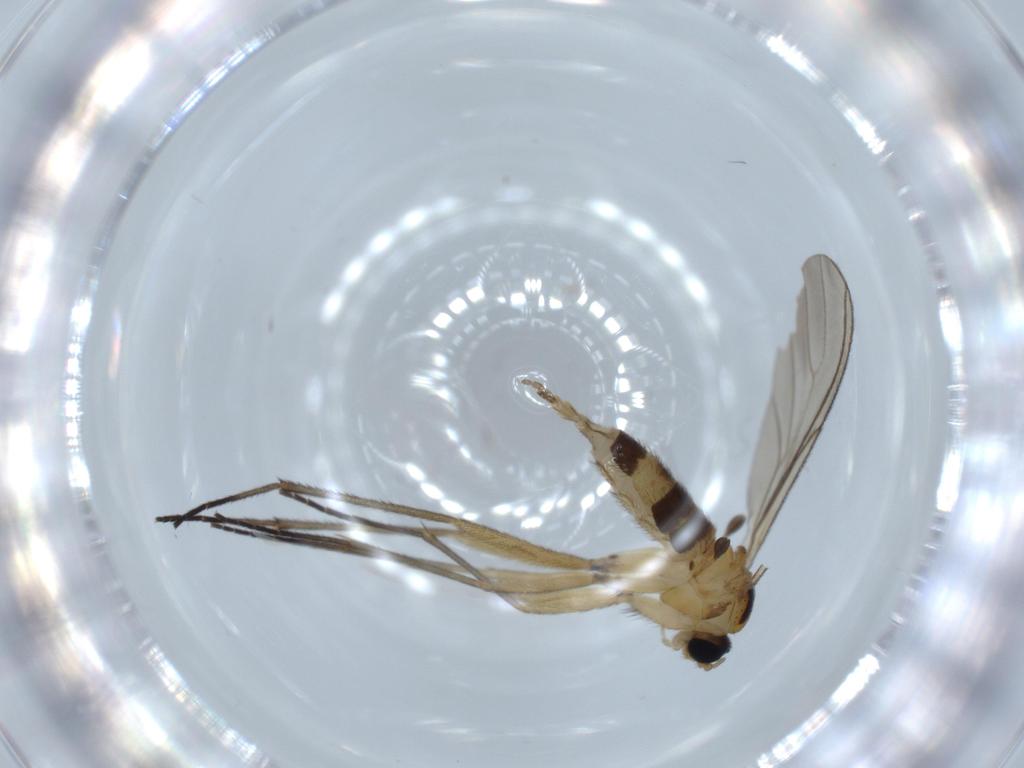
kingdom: Animalia
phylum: Arthropoda
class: Insecta
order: Diptera
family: Sciaridae
